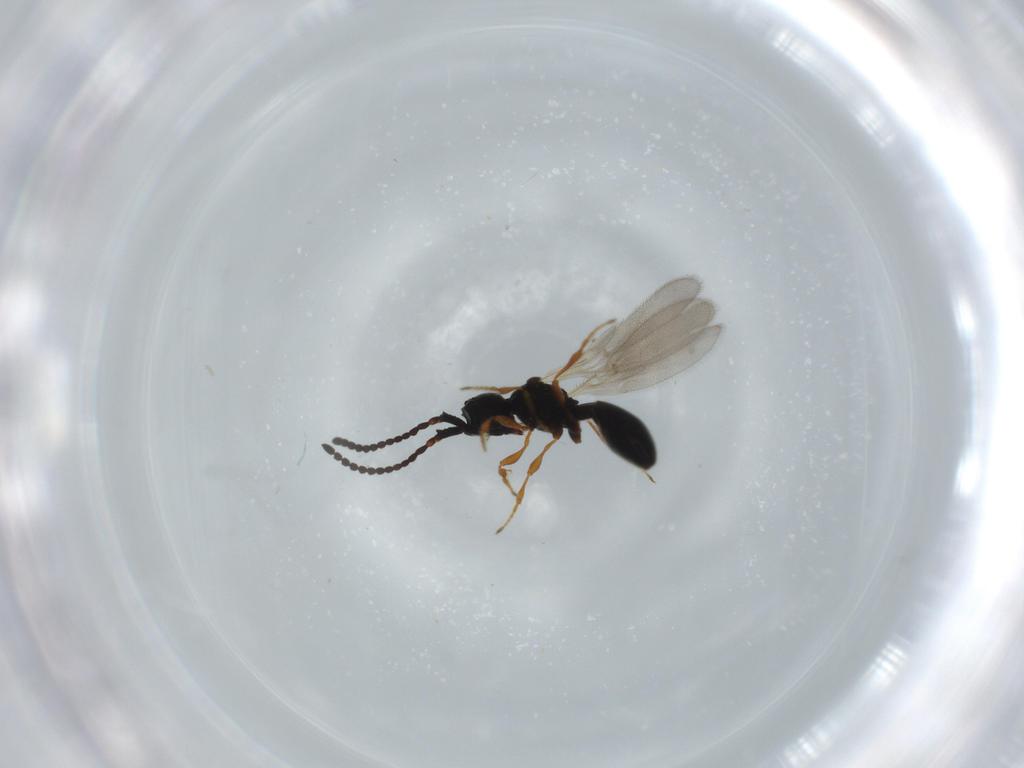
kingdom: Animalia
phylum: Arthropoda
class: Insecta
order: Hymenoptera
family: Diapriidae
